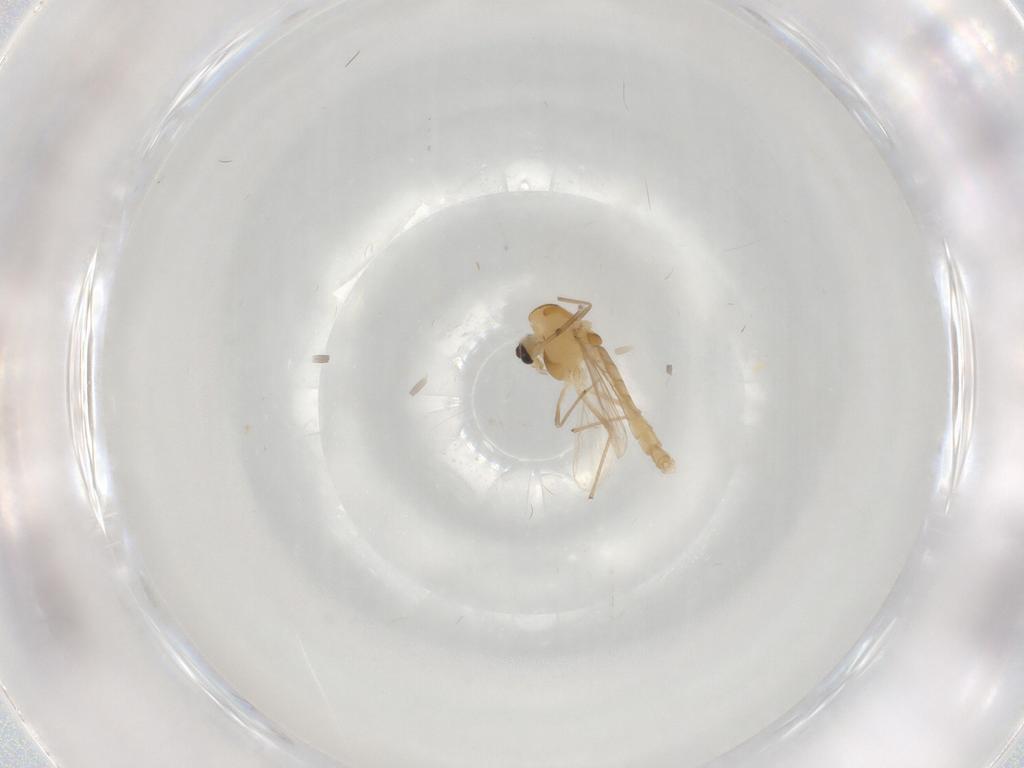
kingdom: Animalia
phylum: Arthropoda
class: Insecta
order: Diptera
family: Chironomidae
